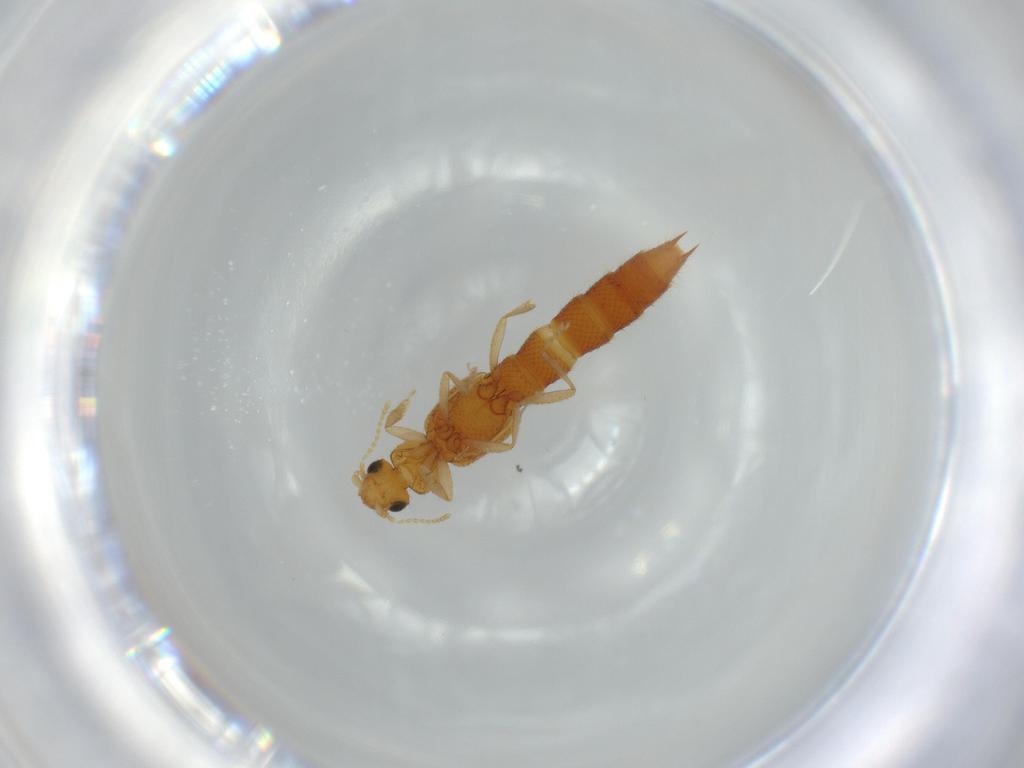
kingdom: Animalia
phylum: Arthropoda
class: Insecta
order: Coleoptera
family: Staphylinidae
